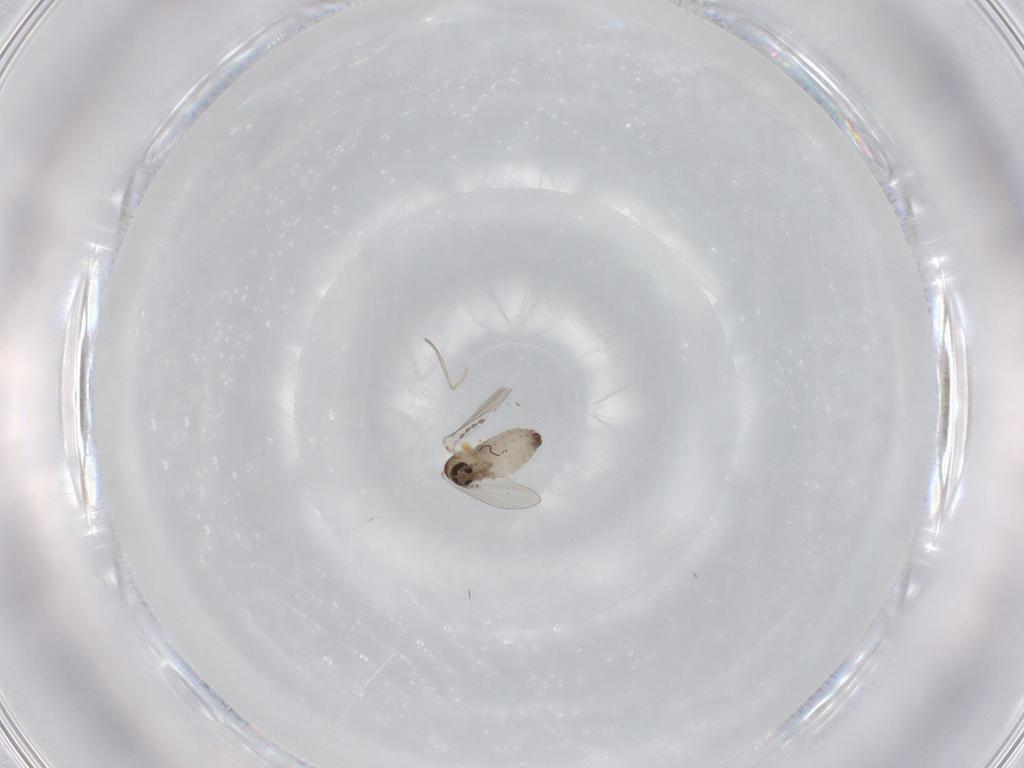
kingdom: Animalia
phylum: Arthropoda
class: Insecta
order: Diptera
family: Psychodidae
